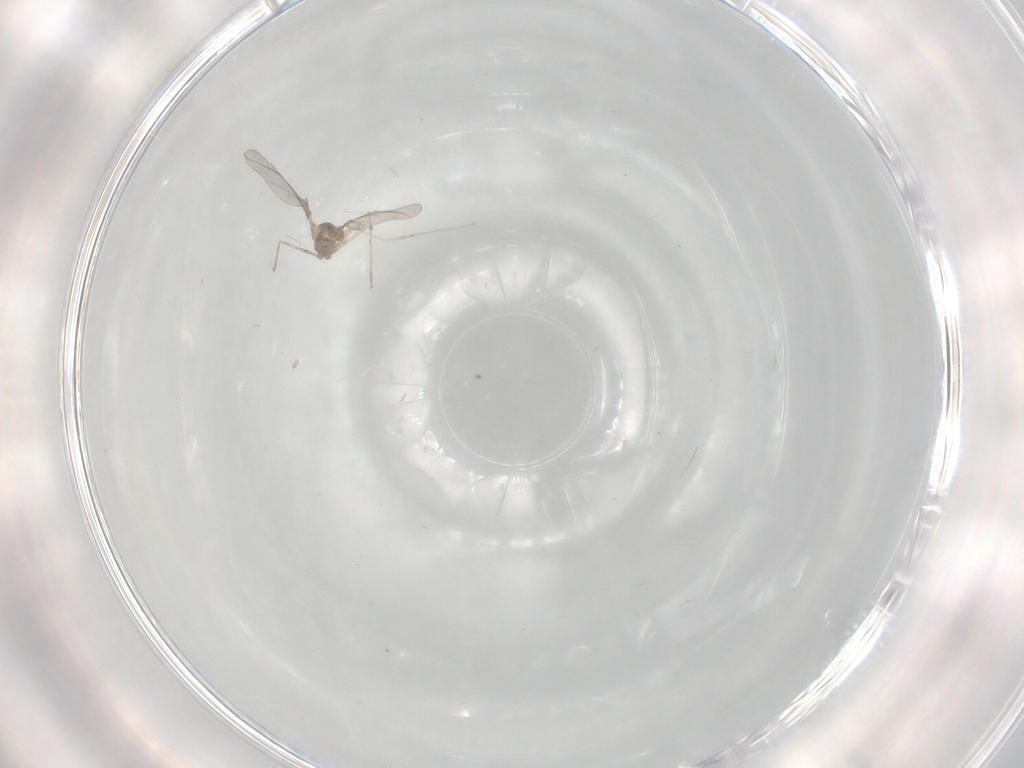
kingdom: Animalia
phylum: Arthropoda
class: Insecta
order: Diptera
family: Cecidomyiidae
